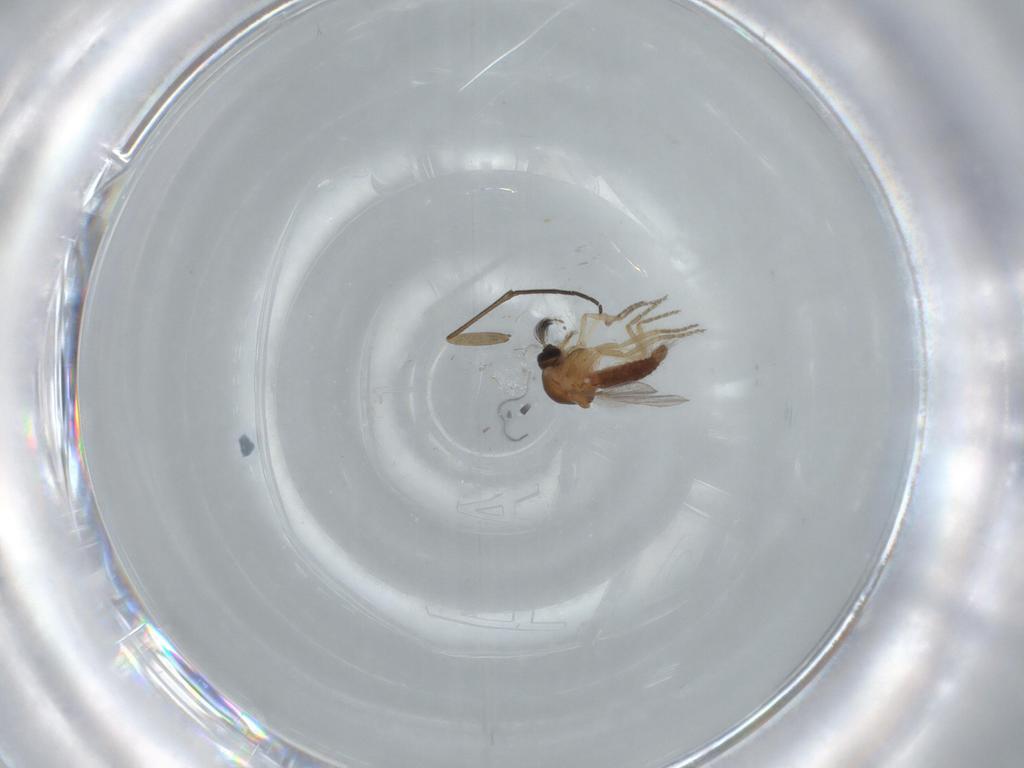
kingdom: Animalia
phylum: Arthropoda
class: Insecta
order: Diptera
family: Cecidomyiidae
